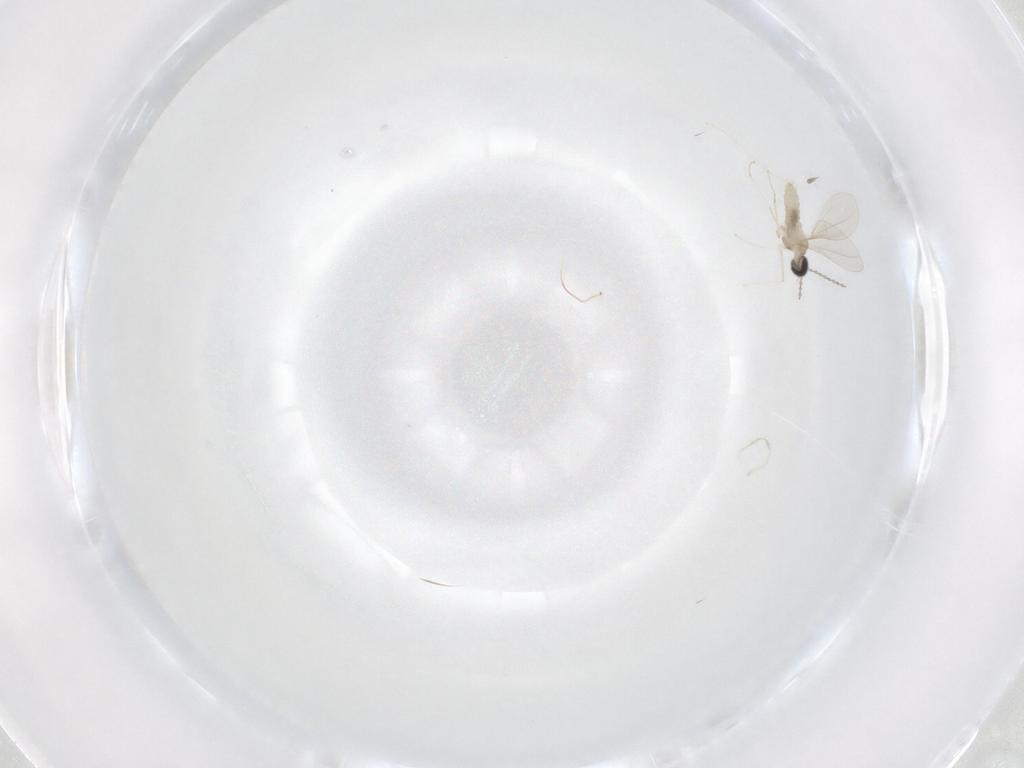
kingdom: Animalia
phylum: Arthropoda
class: Insecta
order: Diptera
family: Cecidomyiidae
